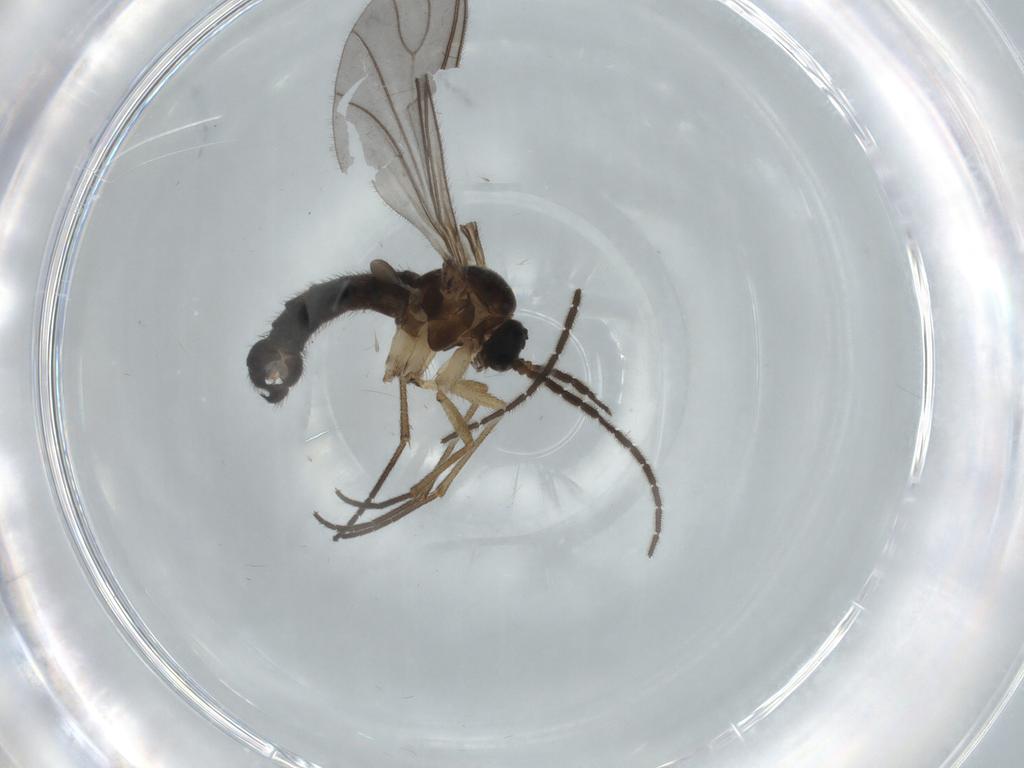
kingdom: Animalia
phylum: Arthropoda
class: Insecta
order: Diptera
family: Sciaridae
